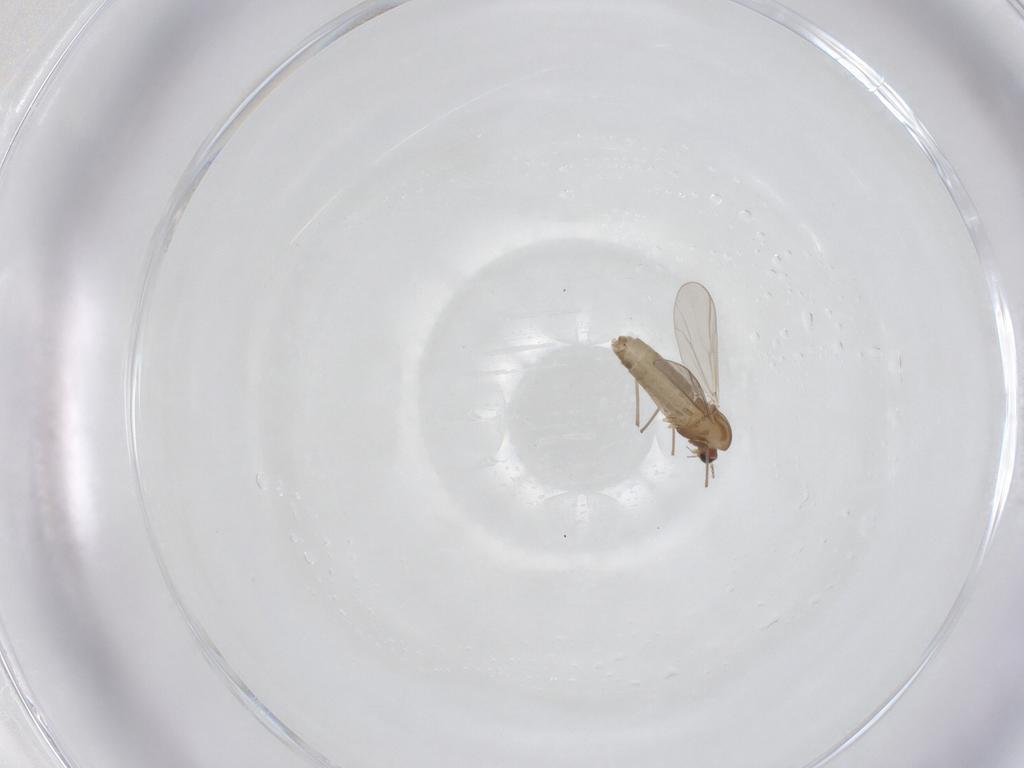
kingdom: Animalia
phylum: Arthropoda
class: Insecta
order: Diptera
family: Chironomidae
